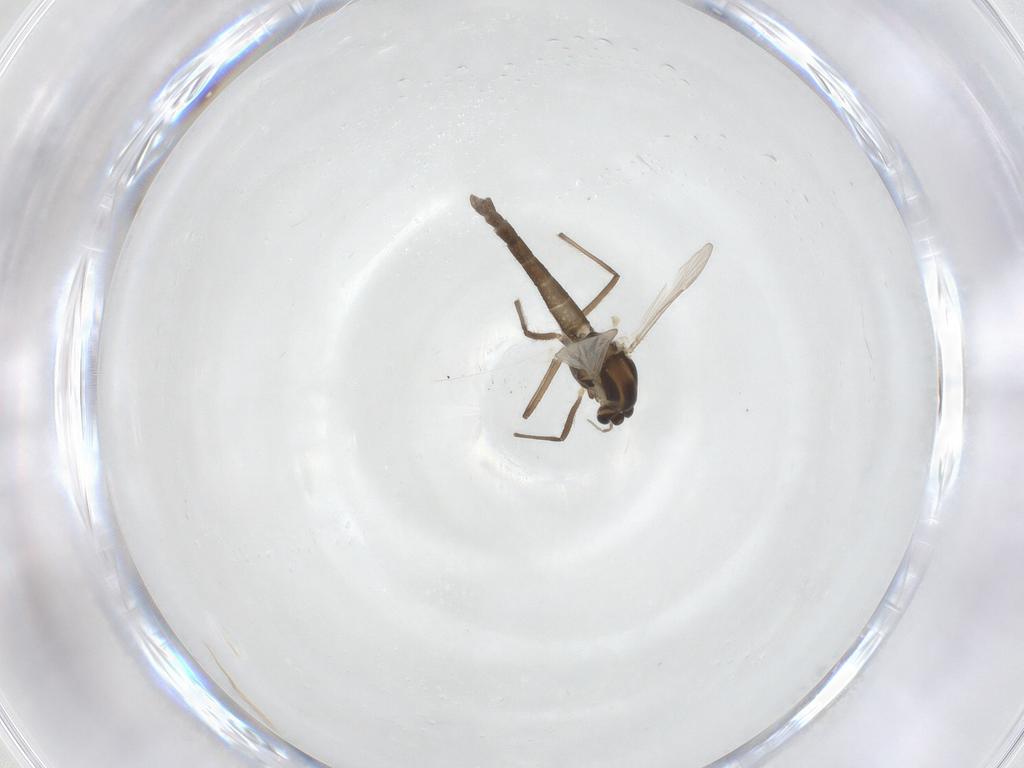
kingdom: Animalia
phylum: Arthropoda
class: Insecta
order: Diptera
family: Chironomidae
